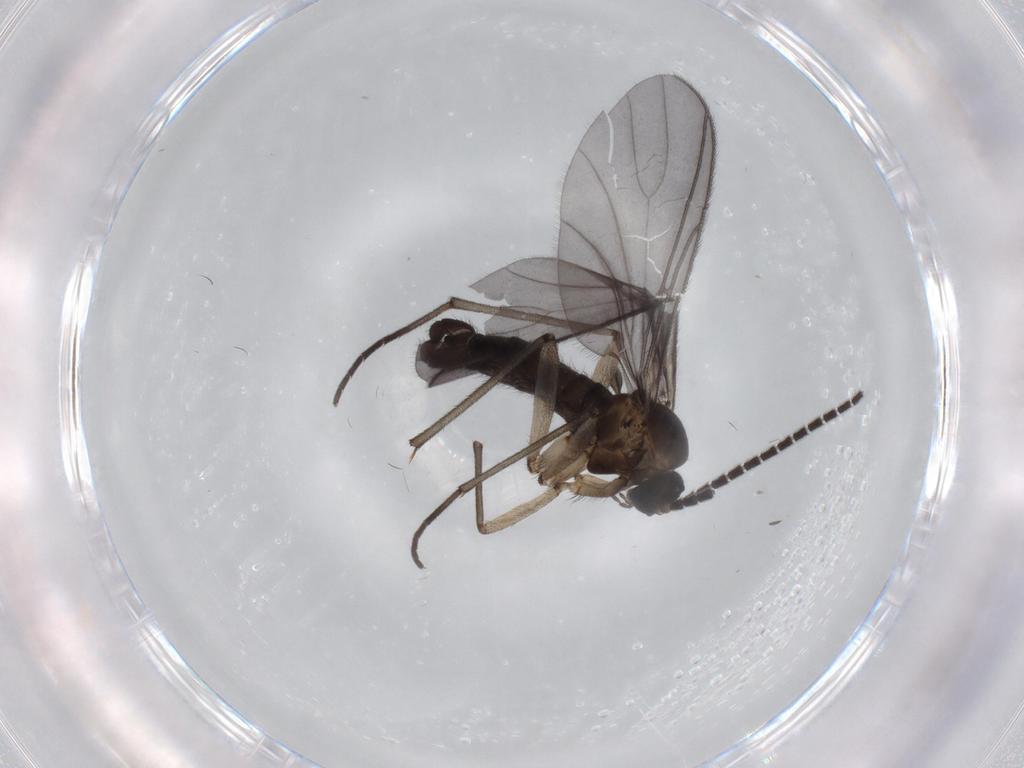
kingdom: Animalia
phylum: Arthropoda
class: Insecta
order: Diptera
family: Sciaridae
